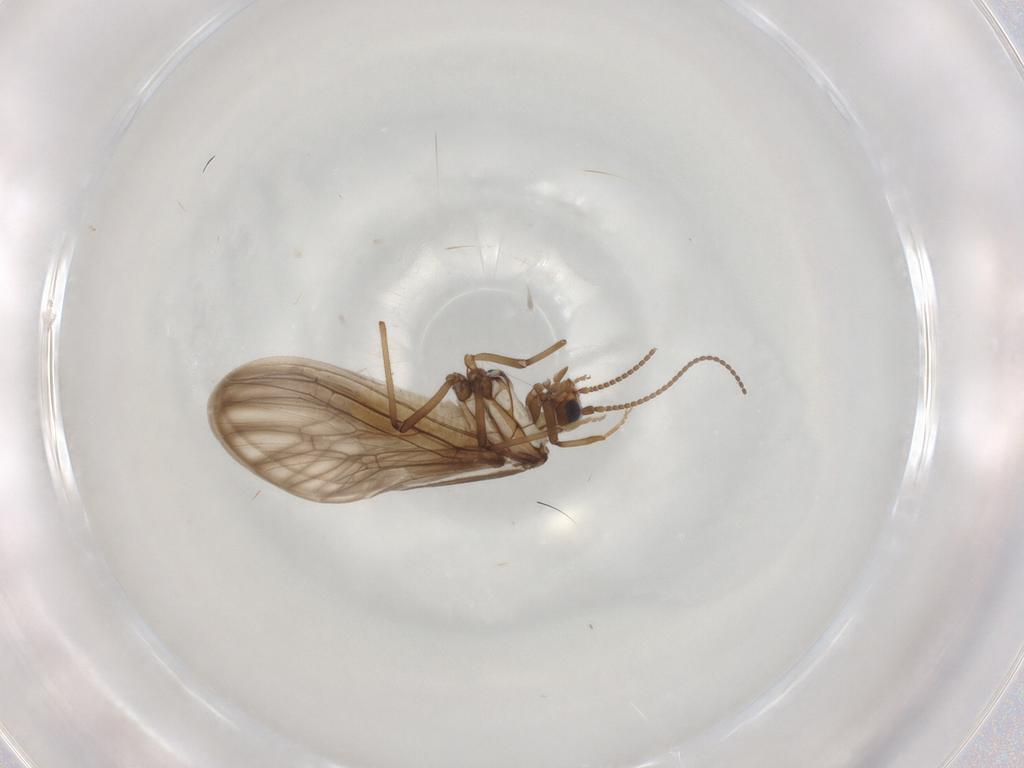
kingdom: Animalia
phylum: Arthropoda
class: Insecta
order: Neuroptera
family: Coniopterygidae
